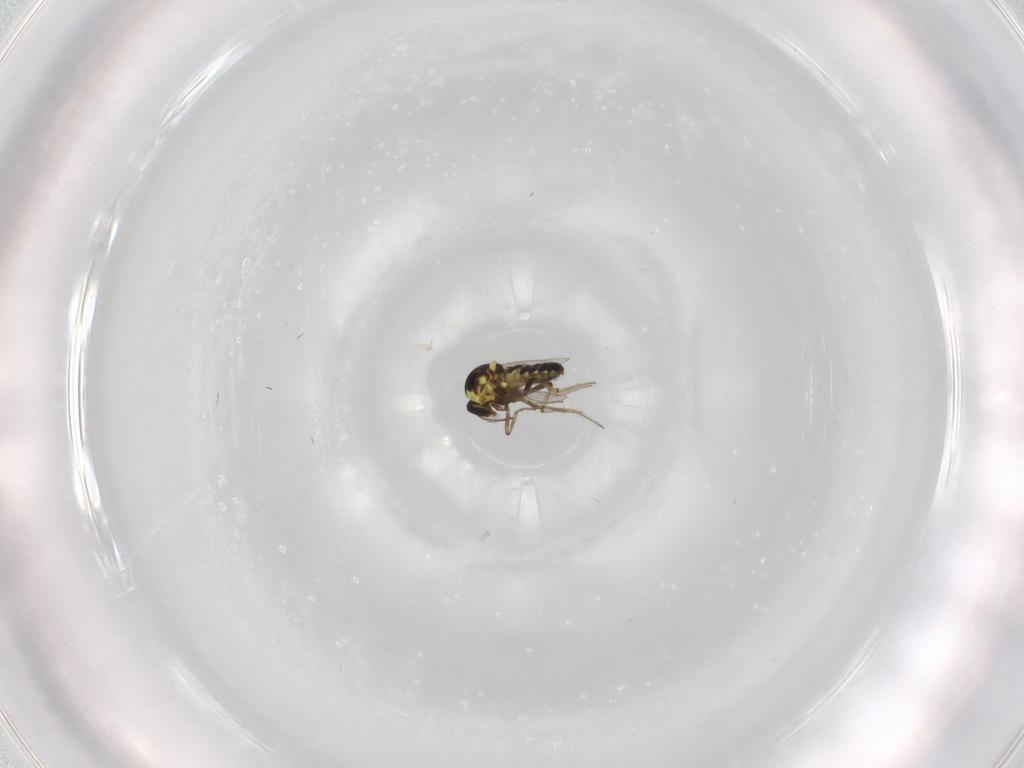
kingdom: Animalia
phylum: Arthropoda
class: Insecta
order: Diptera
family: Ceratopogonidae
